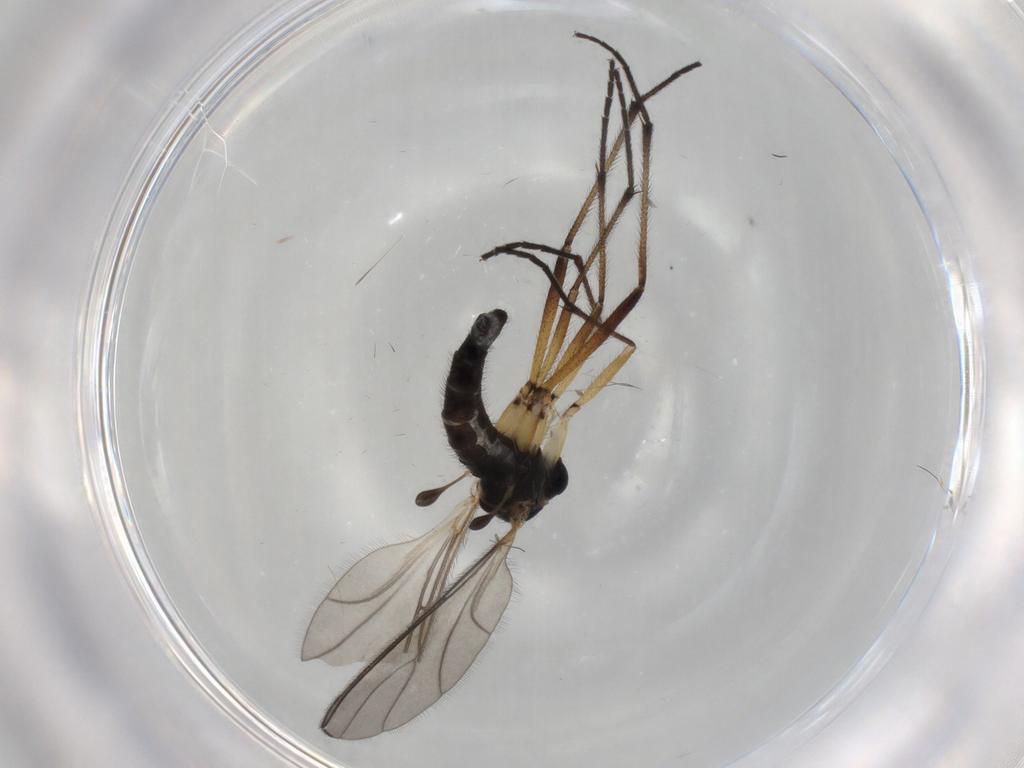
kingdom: Animalia
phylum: Arthropoda
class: Insecta
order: Diptera
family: Sciaridae
